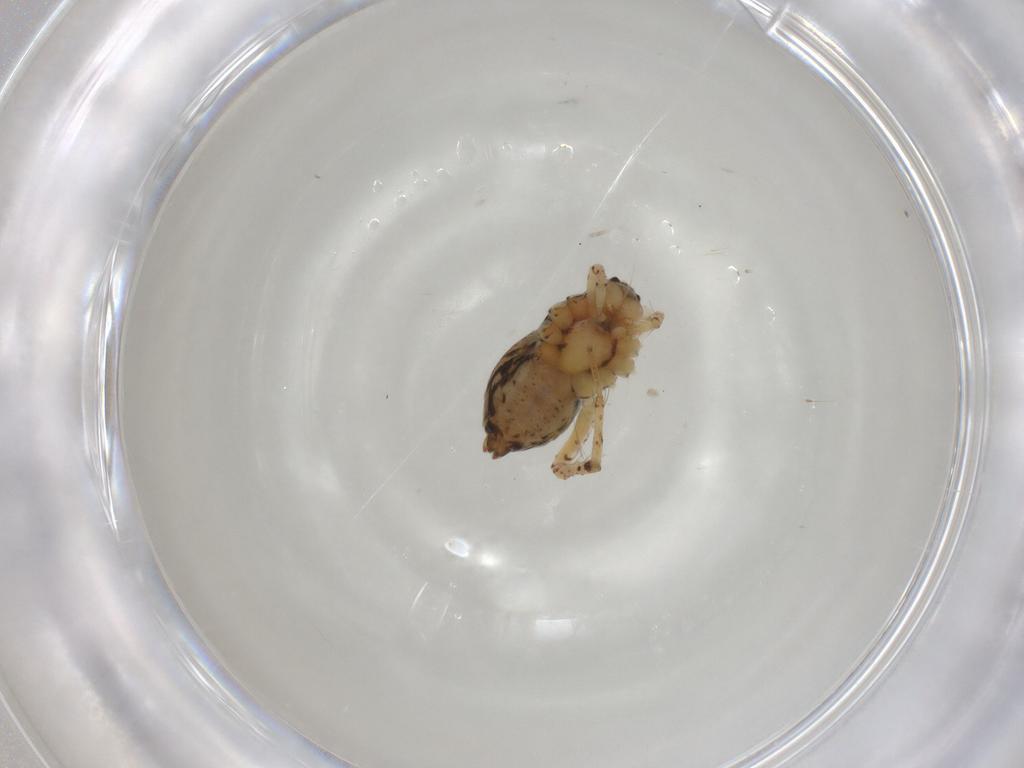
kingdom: Animalia
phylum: Arthropoda
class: Arachnida
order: Araneae
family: Pisauridae
